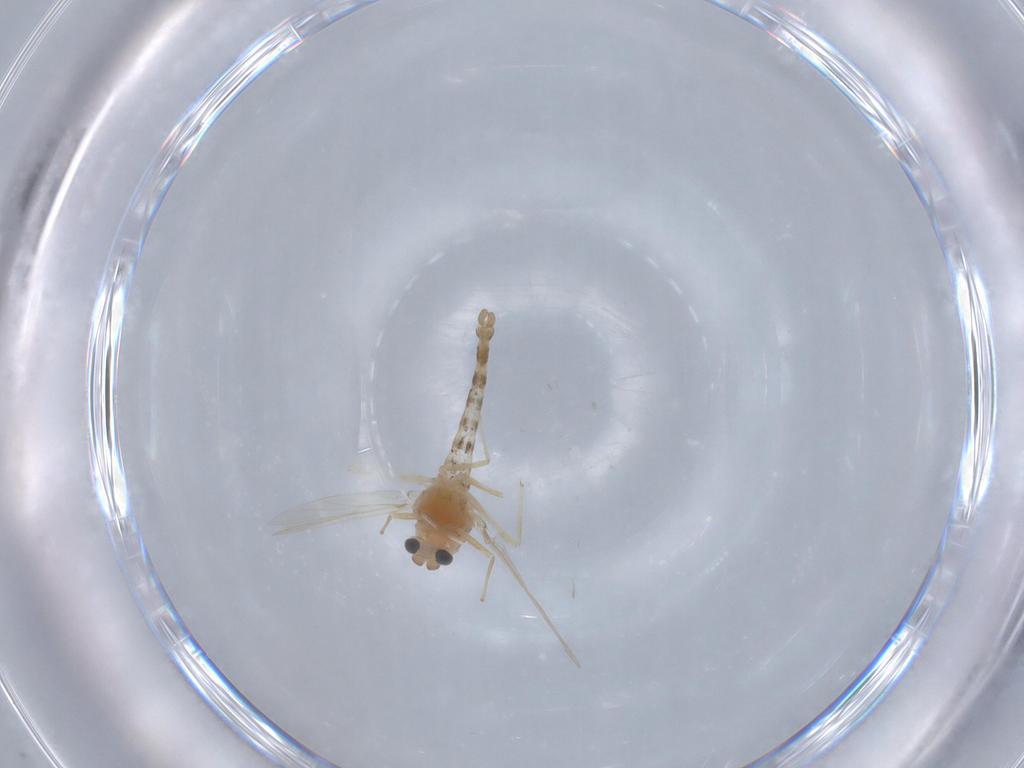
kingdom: Animalia
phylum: Arthropoda
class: Insecta
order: Diptera
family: Chironomidae
